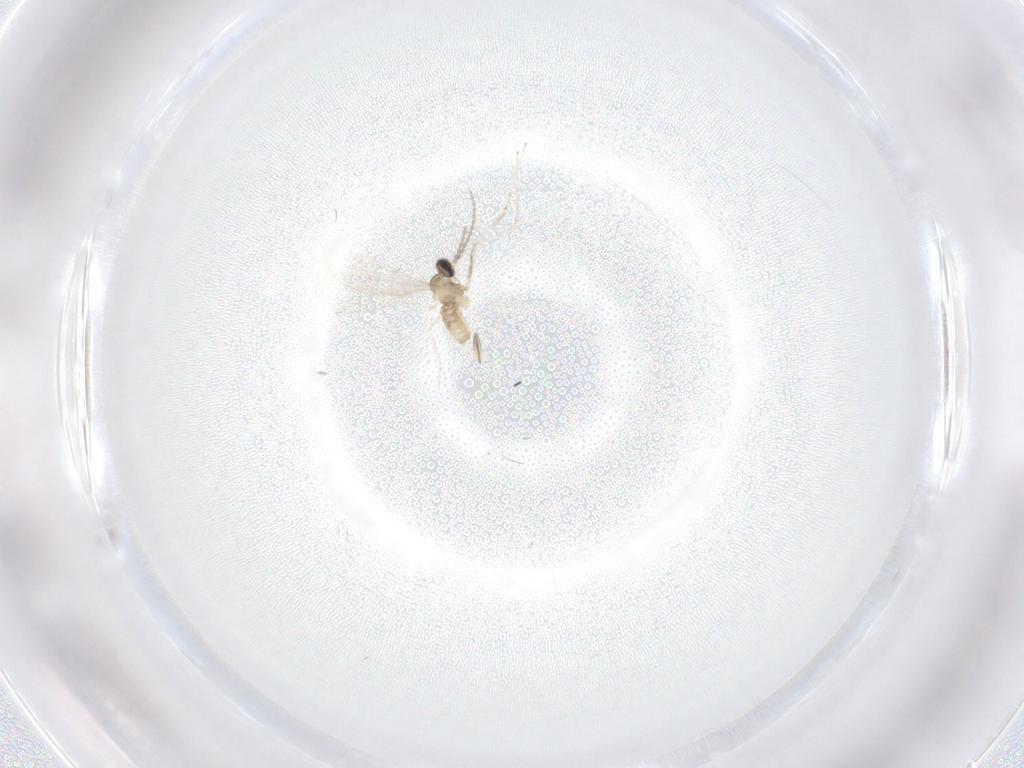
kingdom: Animalia
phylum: Arthropoda
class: Insecta
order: Diptera
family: Cecidomyiidae
